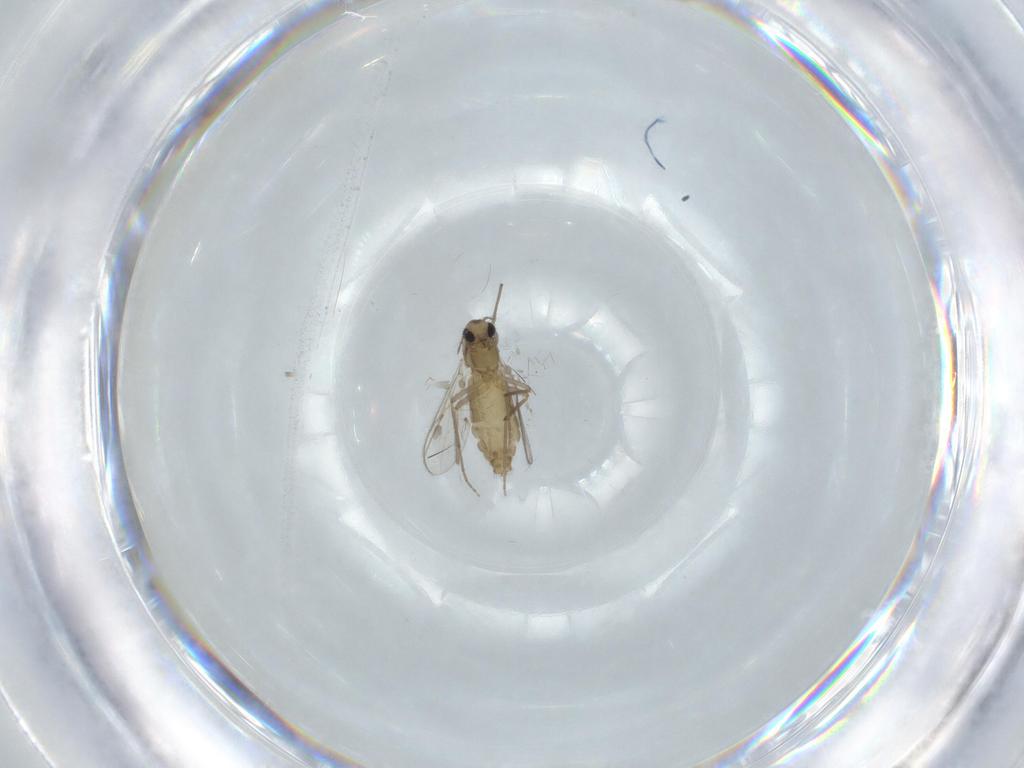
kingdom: Animalia
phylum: Arthropoda
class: Insecta
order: Diptera
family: Chironomidae
